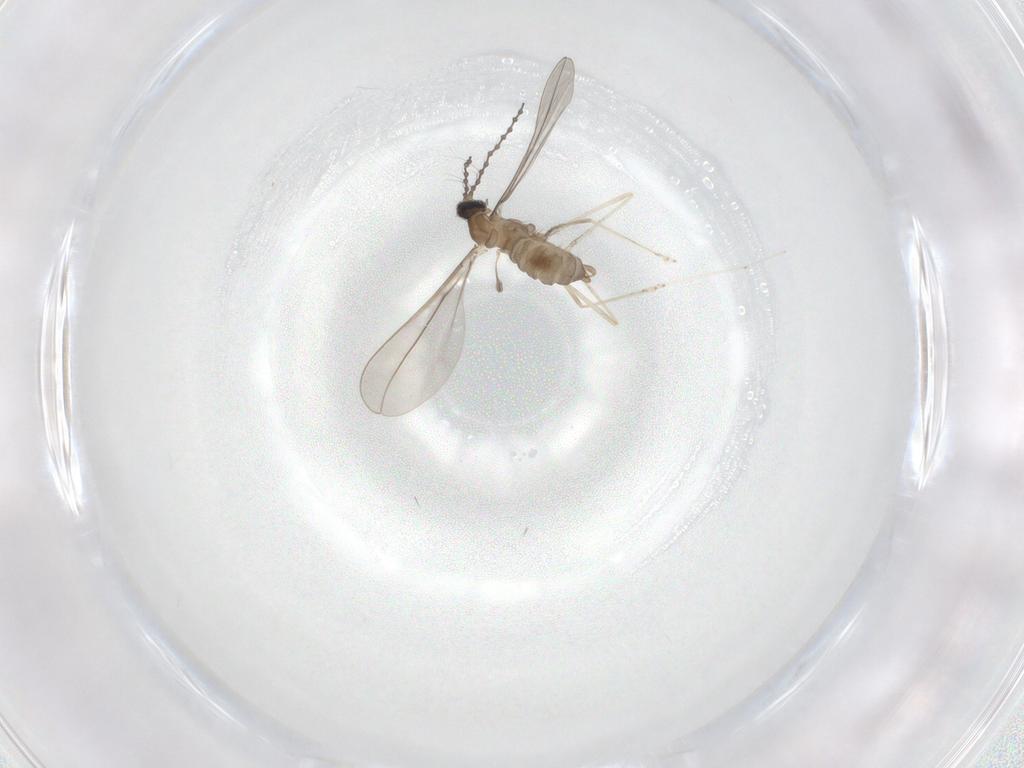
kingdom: Animalia
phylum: Arthropoda
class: Insecta
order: Diptera
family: Cecidomyiidae
